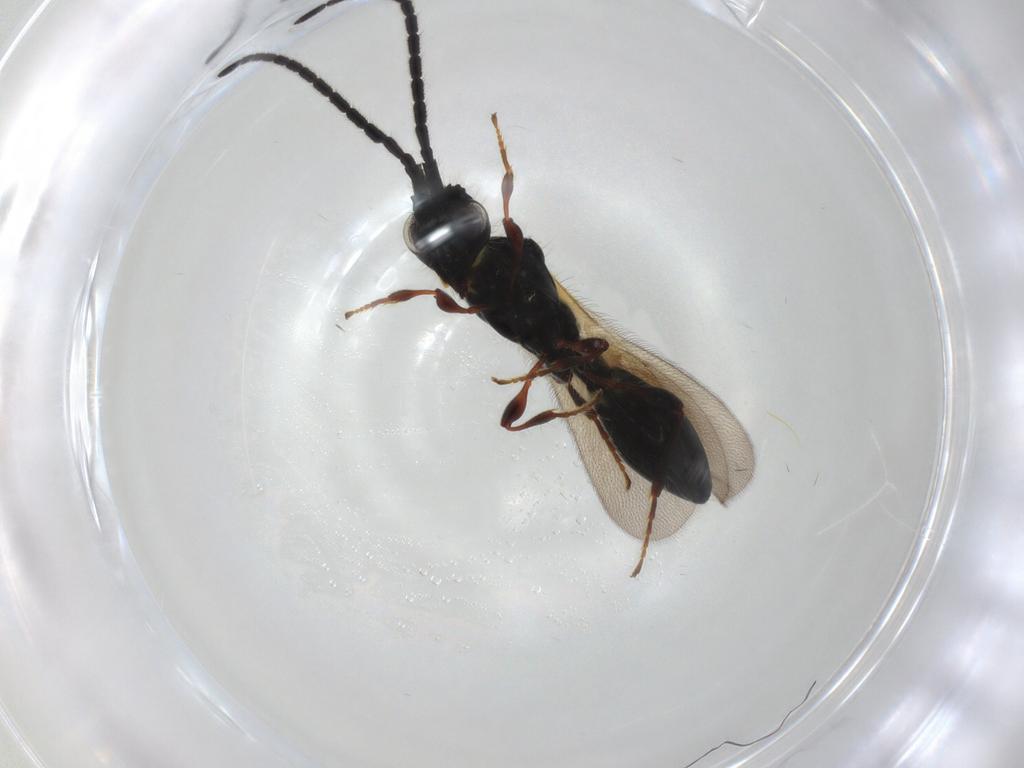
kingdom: Animalia
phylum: Arthropoda
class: Insecta
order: Hymenoptera
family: Diapriidae
